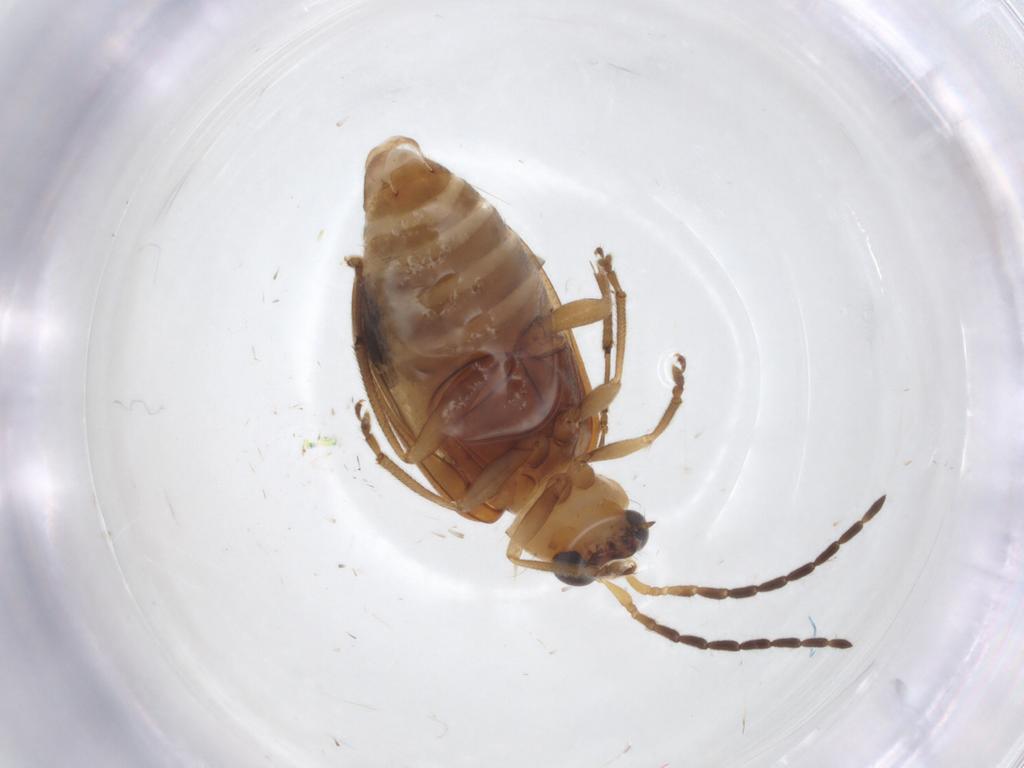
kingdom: Animalia
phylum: Arthropoda
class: Insecta
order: Coleoptera
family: Chrysomelidae
